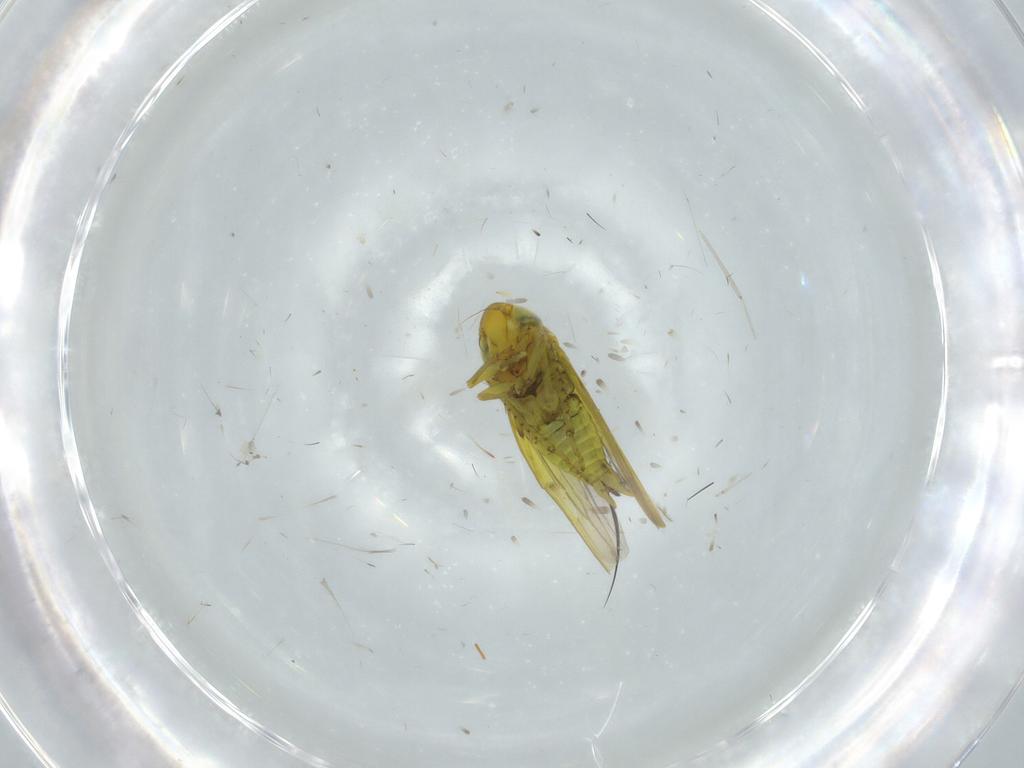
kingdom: Animalia
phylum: Arthropoda
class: Insecta
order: Hemiptera
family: Cicadellidae
